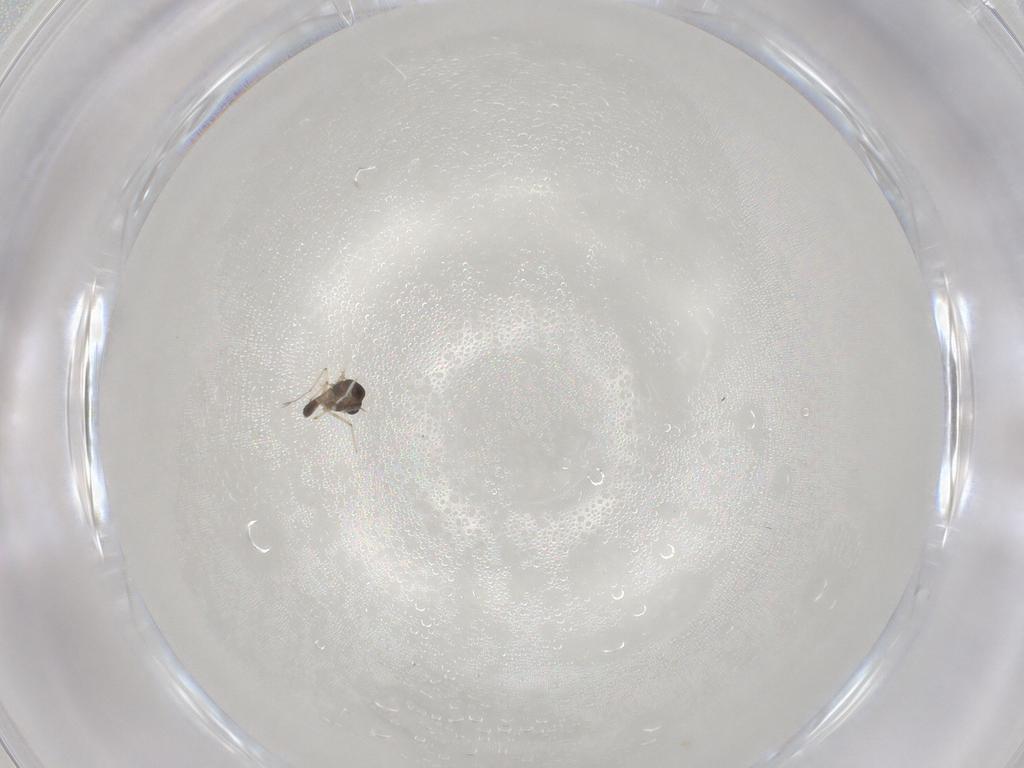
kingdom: Animalia
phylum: Arthropoda
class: Insecta
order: Diptera
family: Chironomidae
